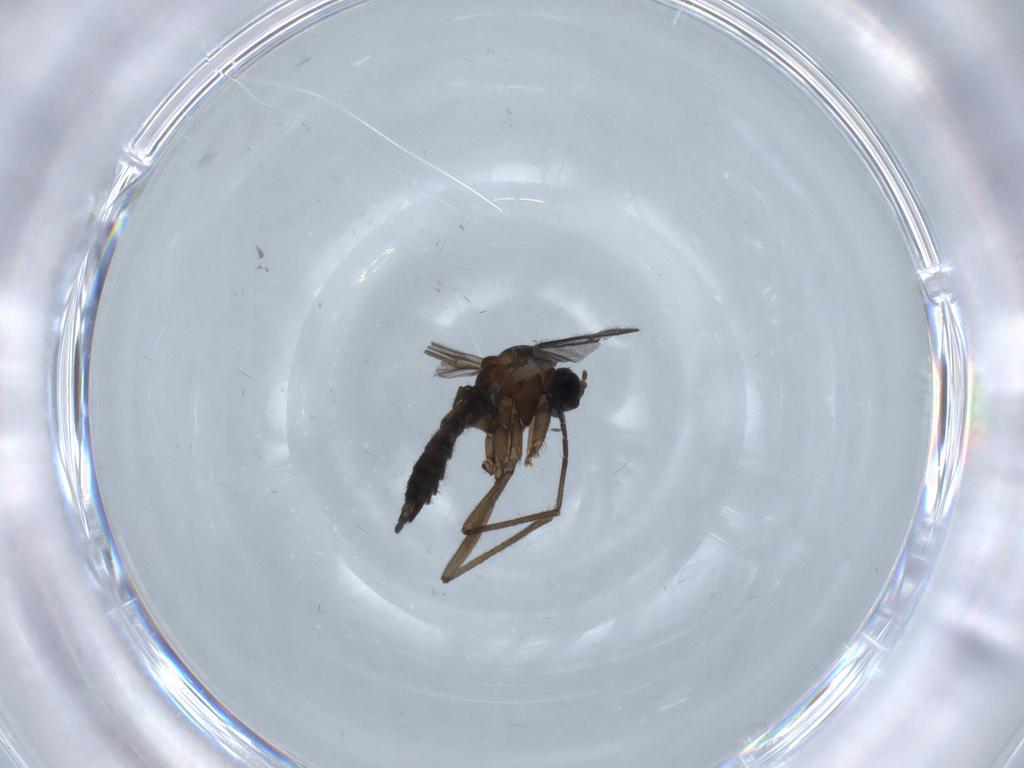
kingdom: Animalia
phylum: Arthropoda
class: Insecta
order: Diptera
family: Sciaridae
